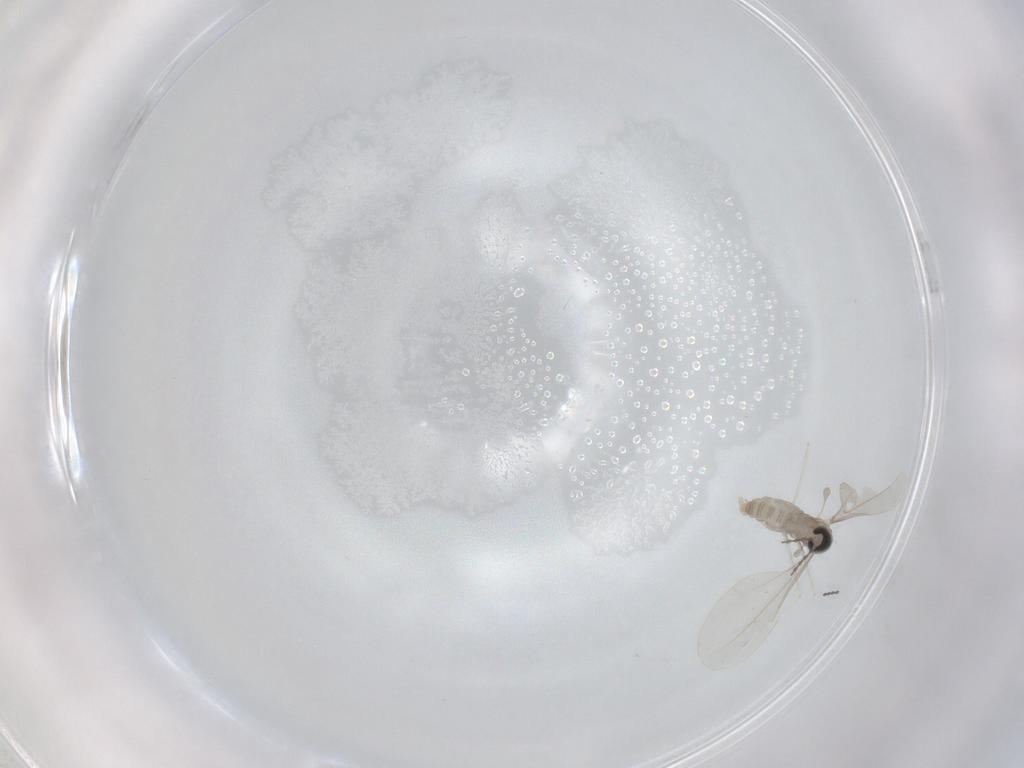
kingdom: Animalia
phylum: Arthropoda
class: Insecta
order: Diptera
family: Cecidomyiidae
